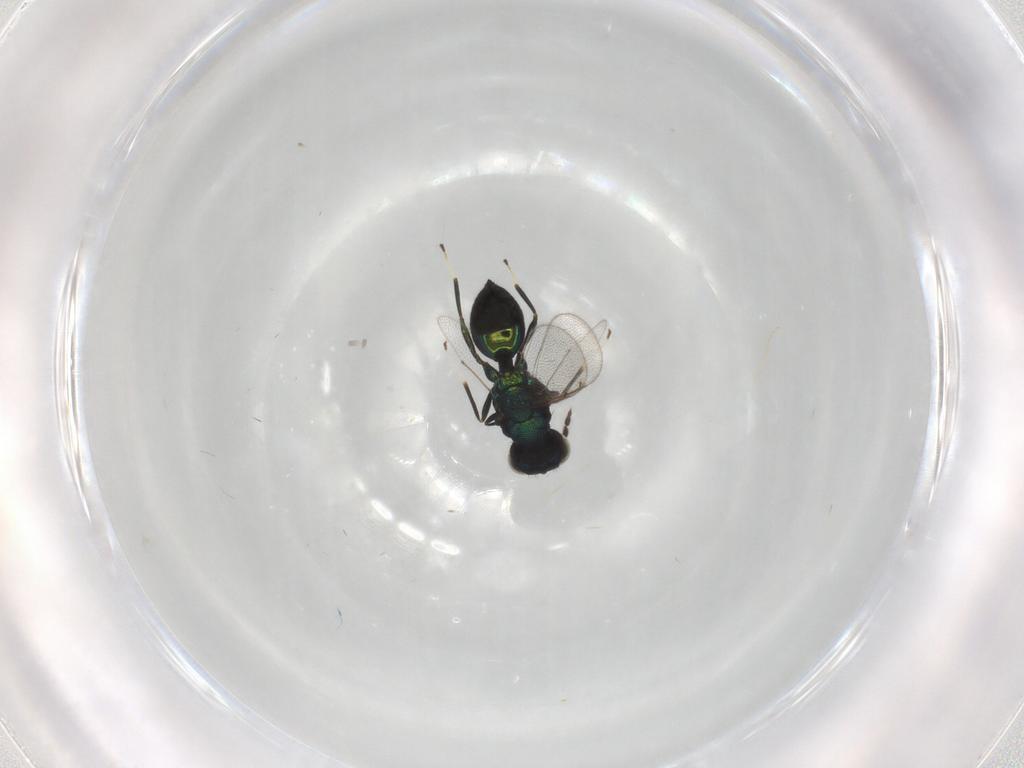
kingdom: Animalia
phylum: Arthropoda
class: Insecta
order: Hymenoptera
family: Eulophidae
